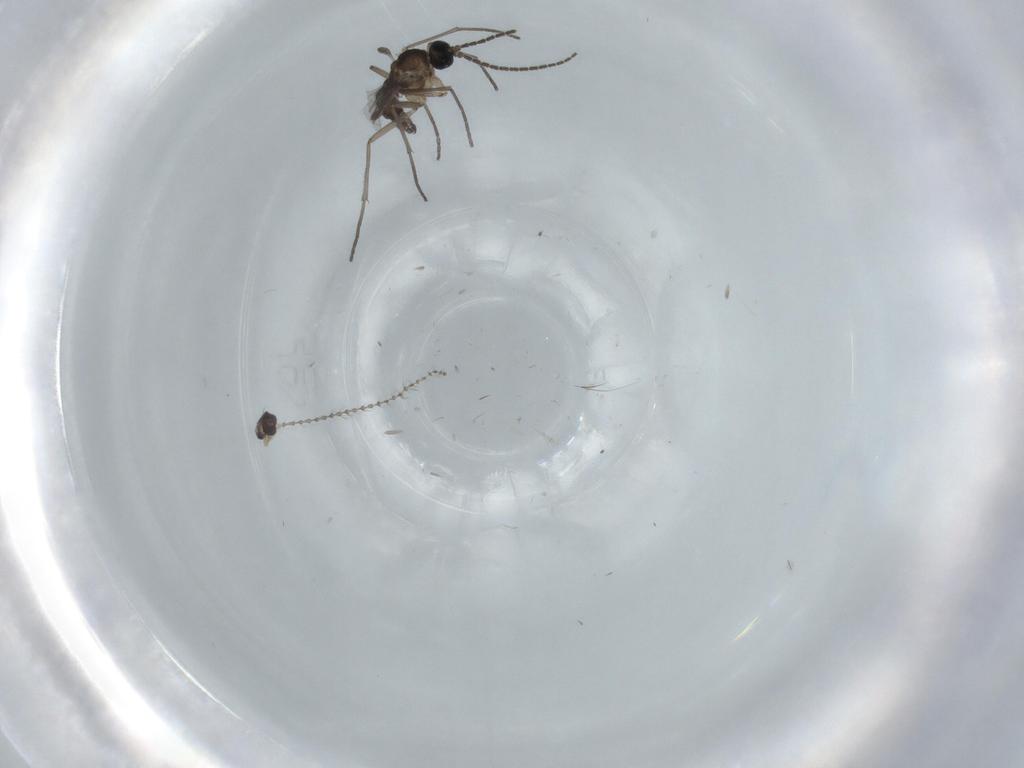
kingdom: Animalia
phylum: Arthropoda
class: Insecta
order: Diptera
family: Sciaridae
